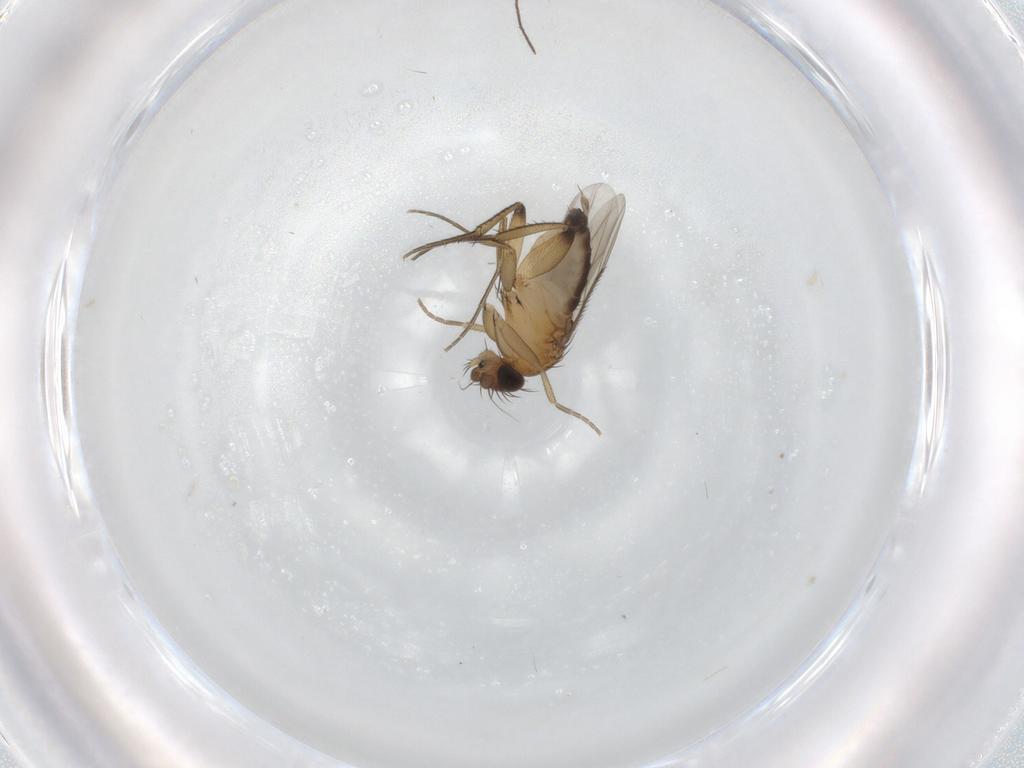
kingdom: Animalia
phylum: Arthropoda
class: Insecta
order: Diptera
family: Phoridae
